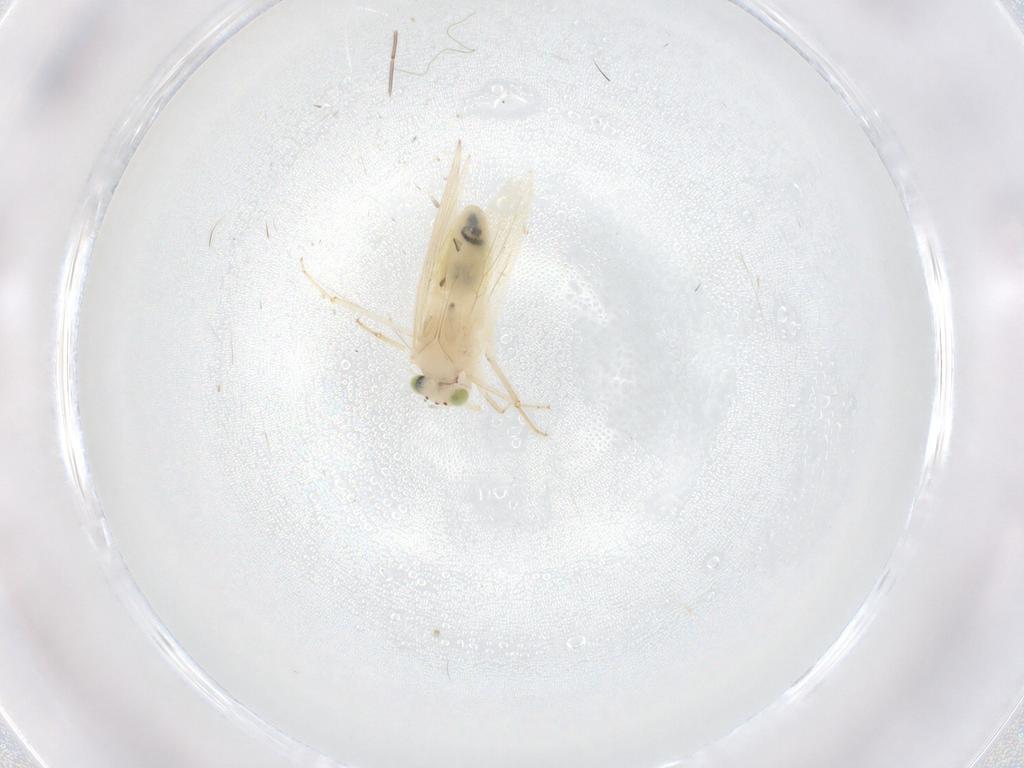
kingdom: Animalia
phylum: Arthropoda
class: Insecta
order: Psocodea
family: Lepidopsocidae
